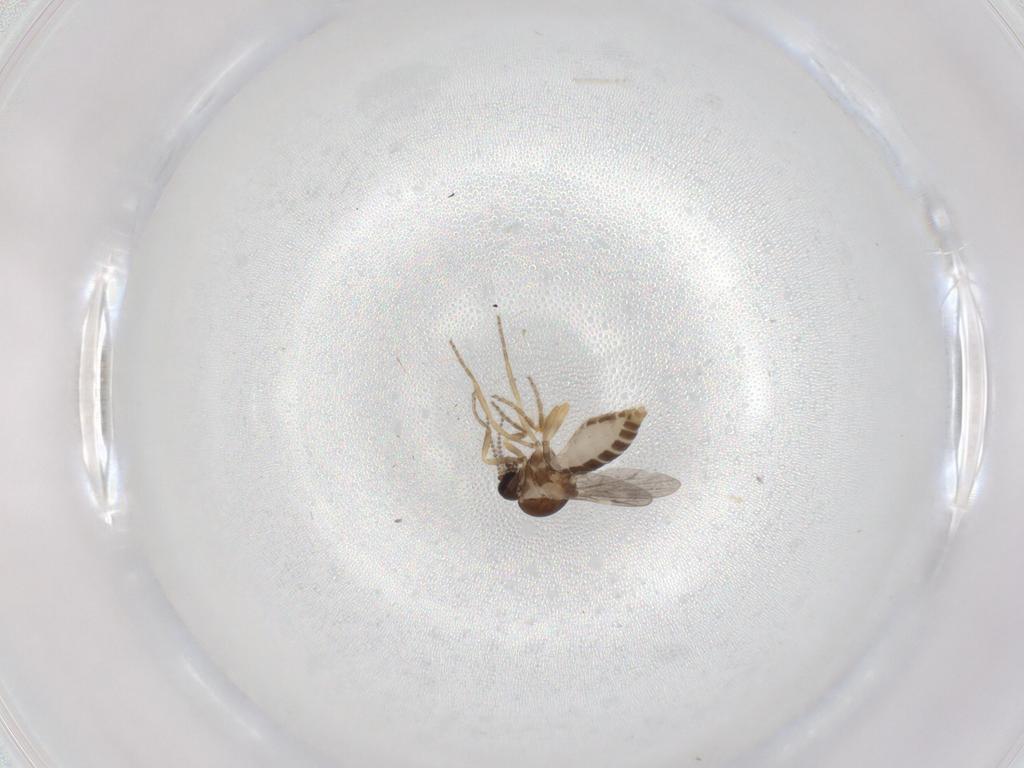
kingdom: Animalia
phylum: Arthropoda
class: Insecta
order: Diptera
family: Ceratopogonidae
